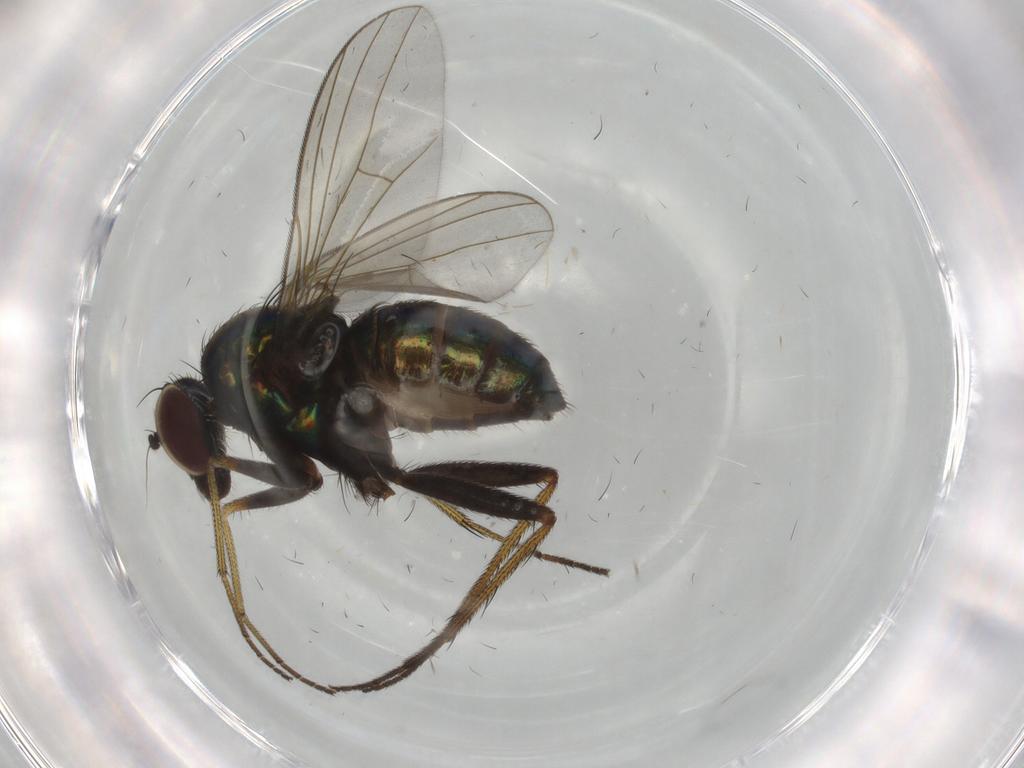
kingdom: Animalia
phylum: Arthropoda
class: Insecta
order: Diptera
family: Dolichopodidae
